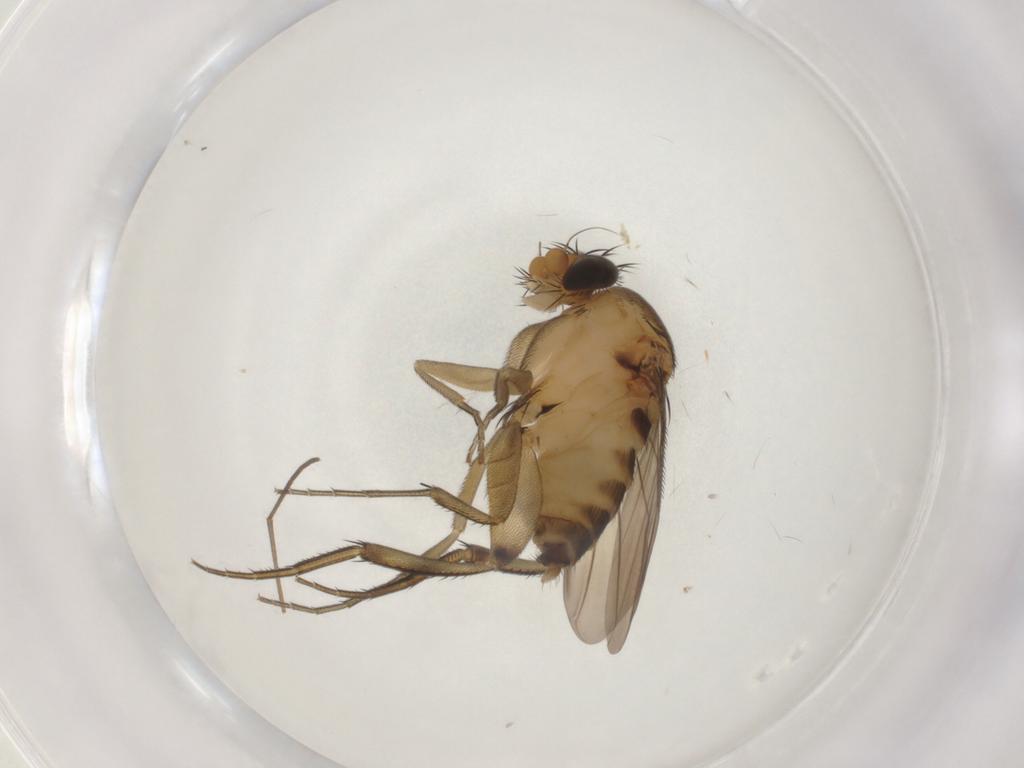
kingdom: Animalia
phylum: Arthropoda
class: Insecta
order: Diptera
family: Sciaridae
